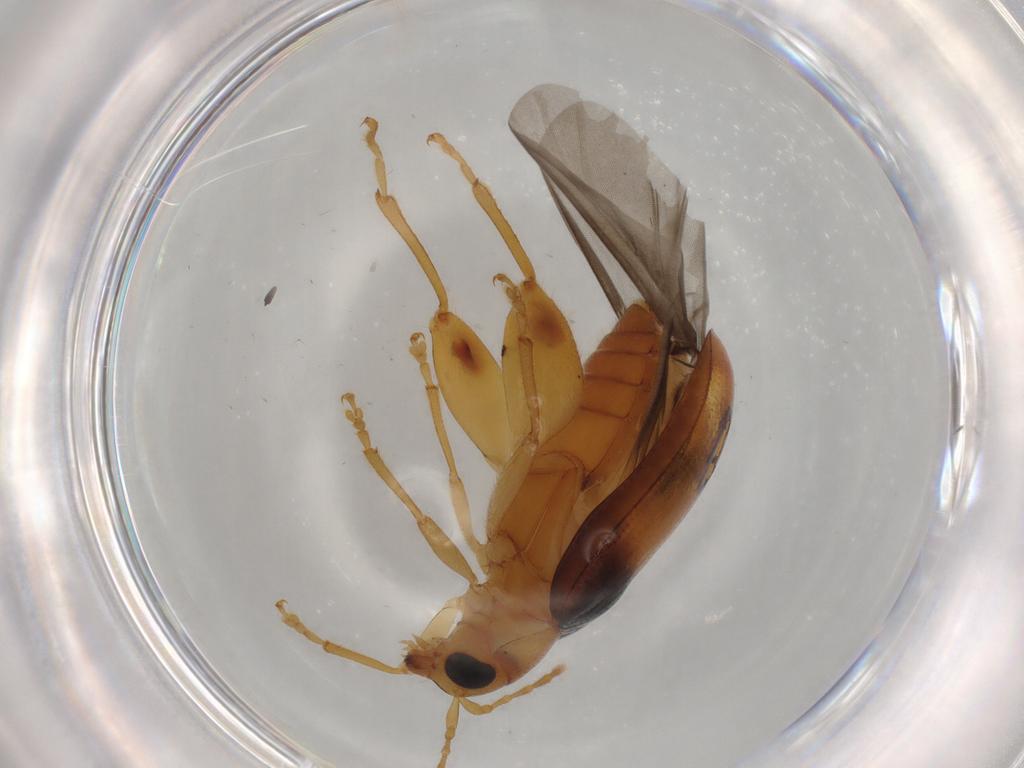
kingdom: Animalia
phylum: Arthropoda
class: Insecta
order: Coleoptera
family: Chrysomelidae
